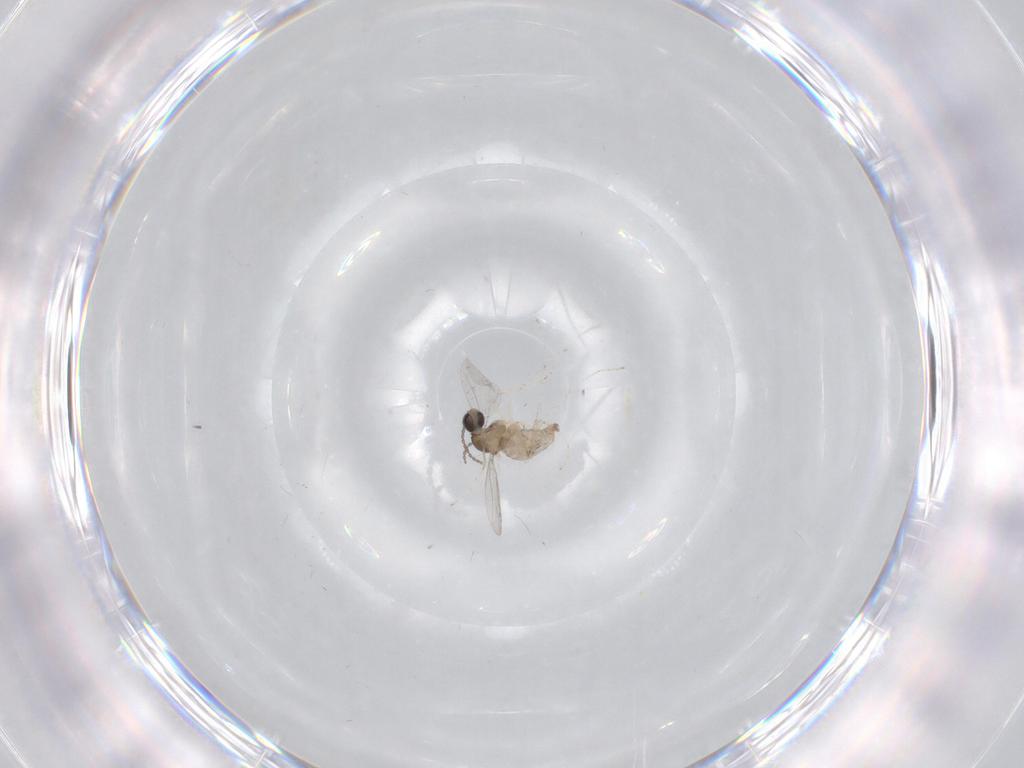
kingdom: Animalia
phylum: Arthropoda
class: Insecta
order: Diptera
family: Cecidomyiidae
